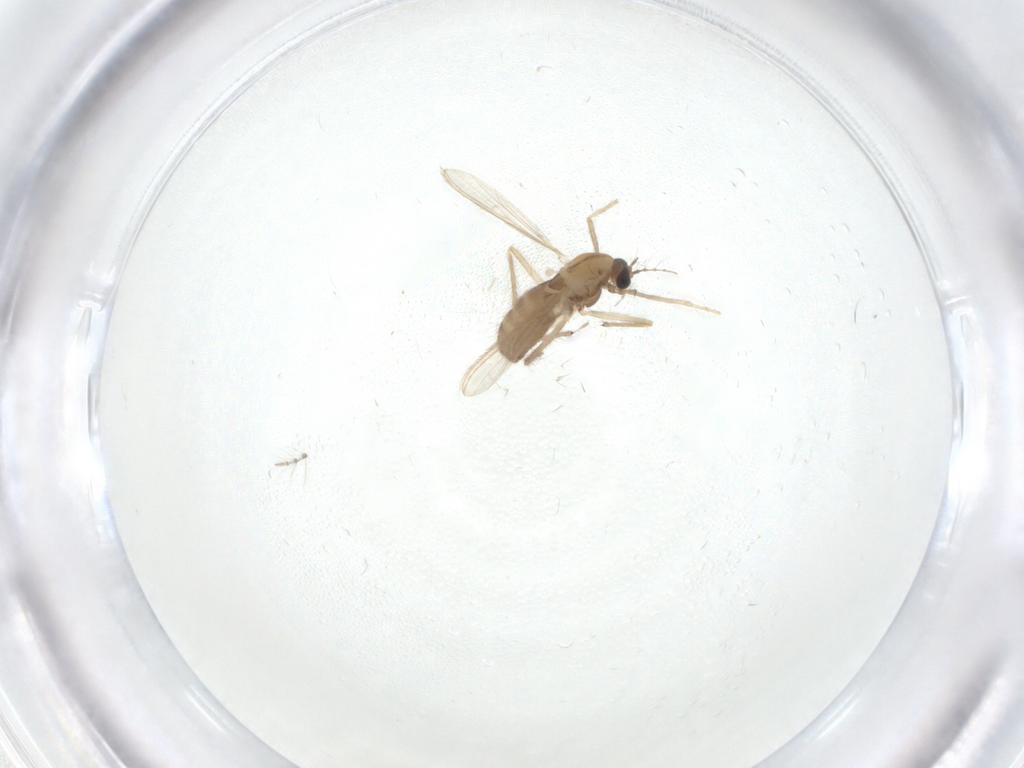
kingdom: Animalia
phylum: Arthropoda
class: Insecta
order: Diptera
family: Chironomidae
